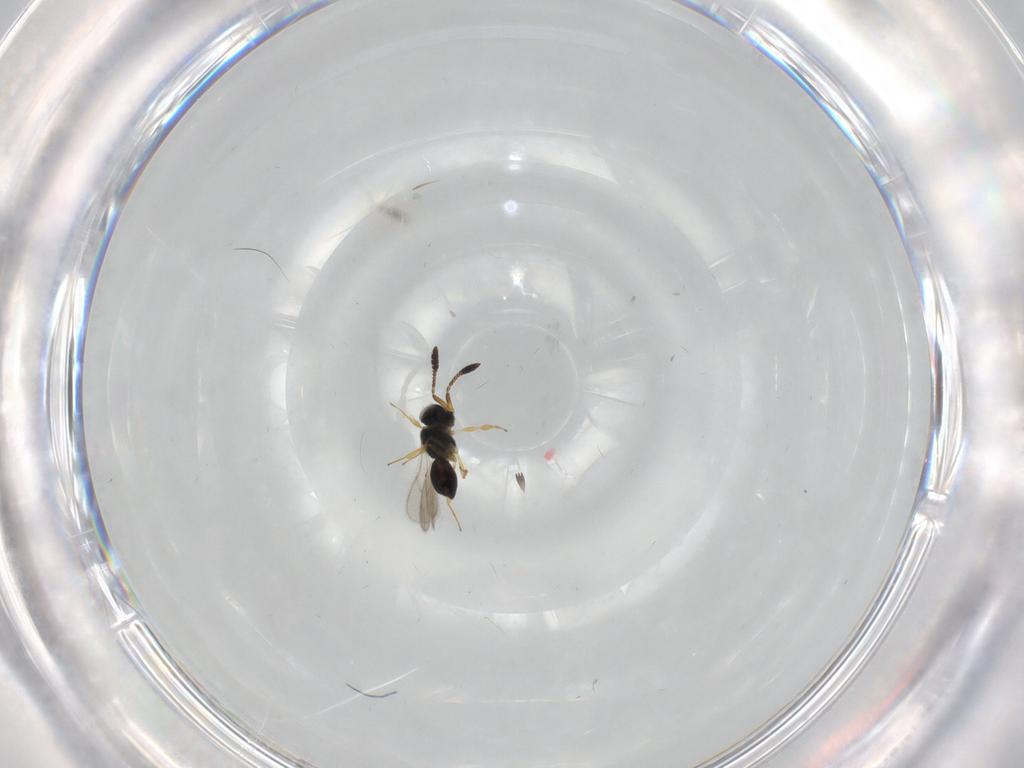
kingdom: Animalia
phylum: Arthropoda
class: Insecta
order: Hymenoptera
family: Scelionidae
